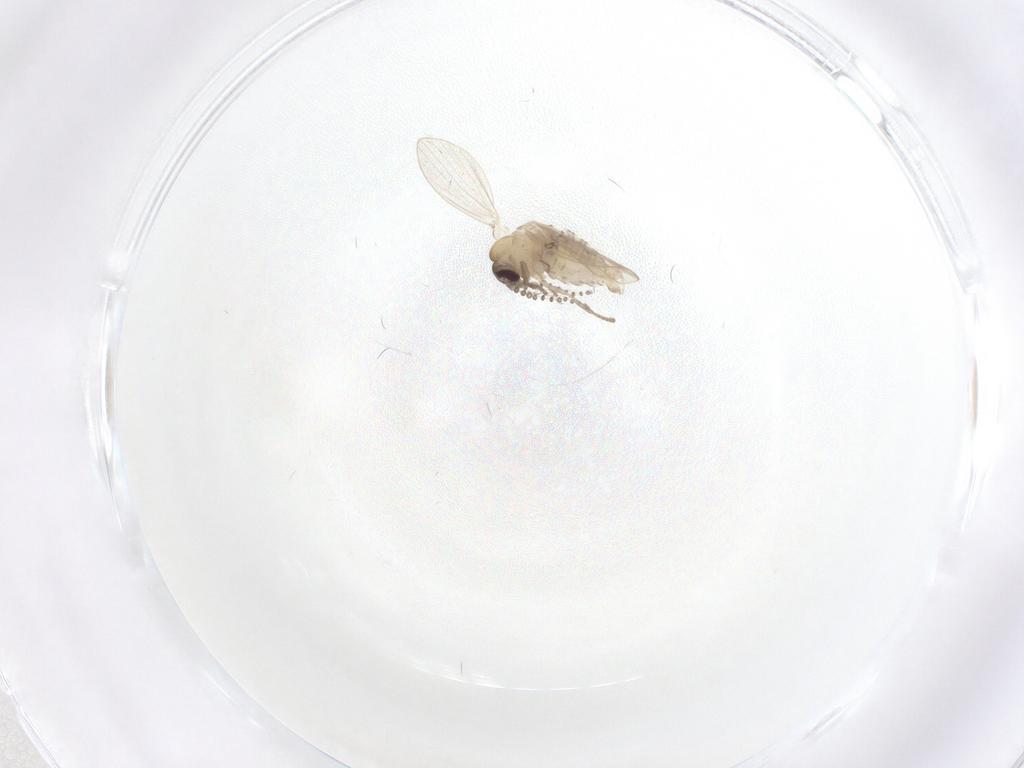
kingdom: Animalia
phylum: Arthropoda
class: Insecta
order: Diptera
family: Psychodidae
